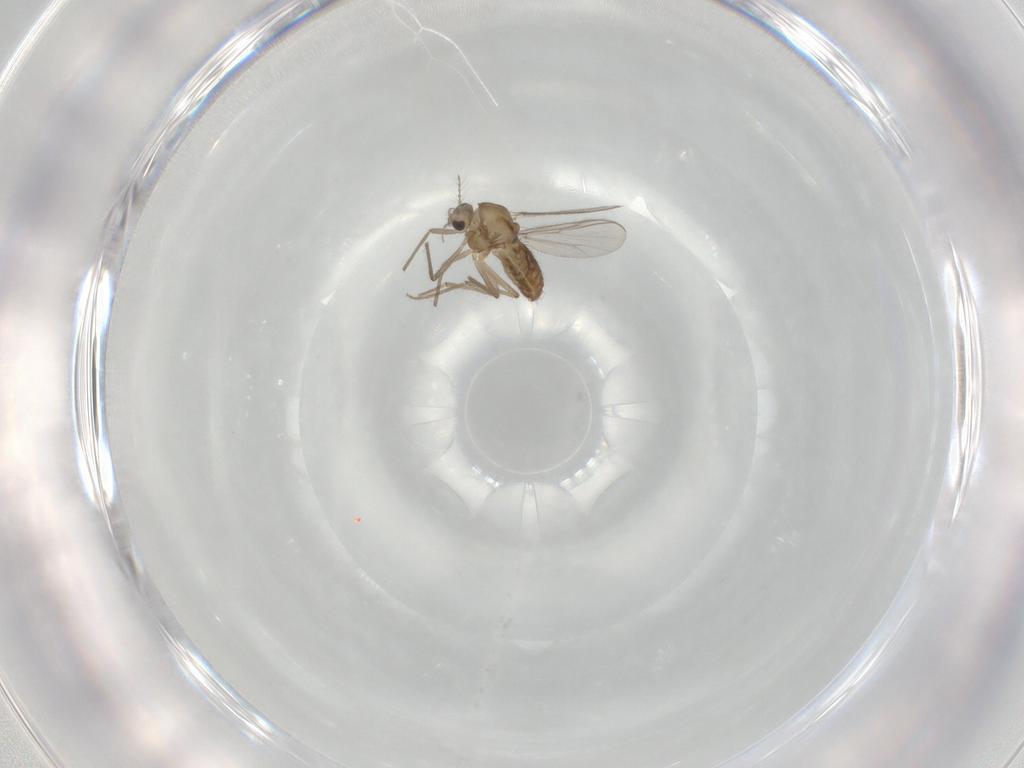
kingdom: Animalia
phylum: Arthropoda
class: Insecta
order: Diptera
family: Chironomidae
